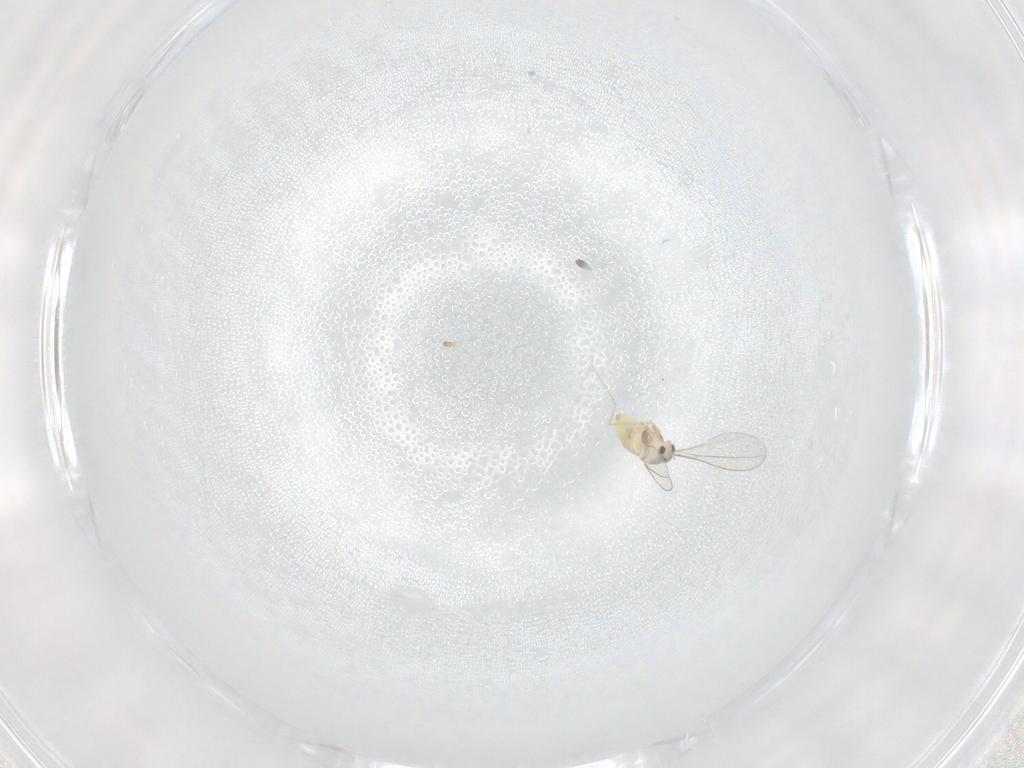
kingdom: Animalia
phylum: Arthropoda
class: Insecta
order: Diptera
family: Cecidomyiidae
